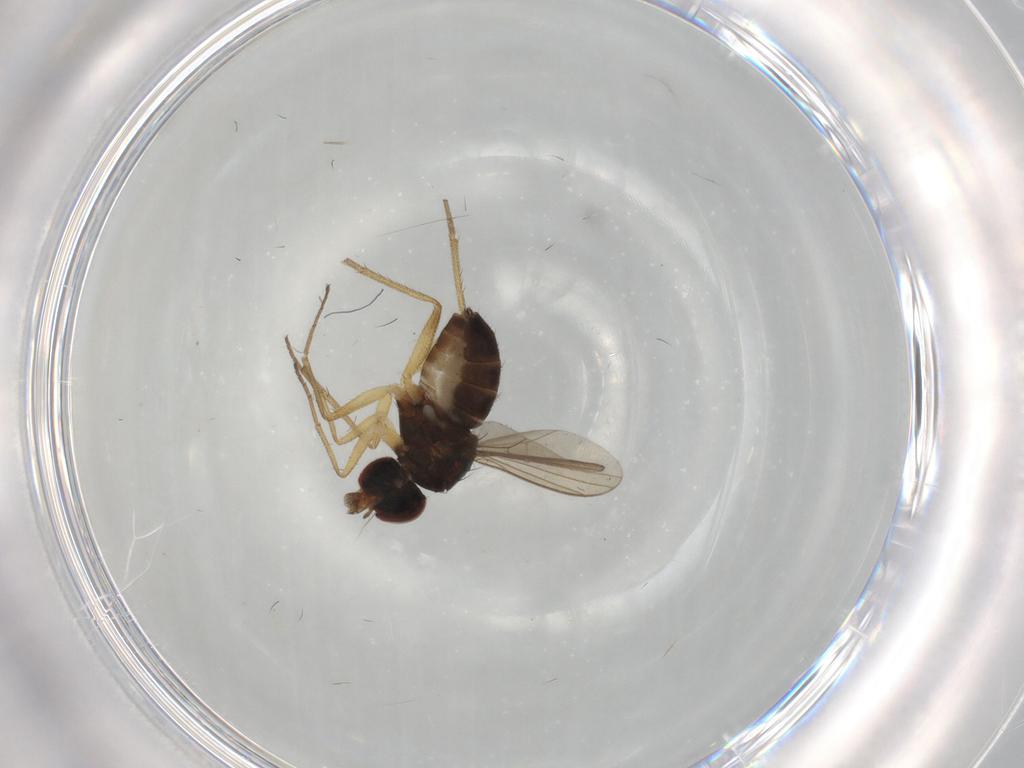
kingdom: Animalia
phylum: Arthropoda
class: Insecta
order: Diptera
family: Dolichopodidae
